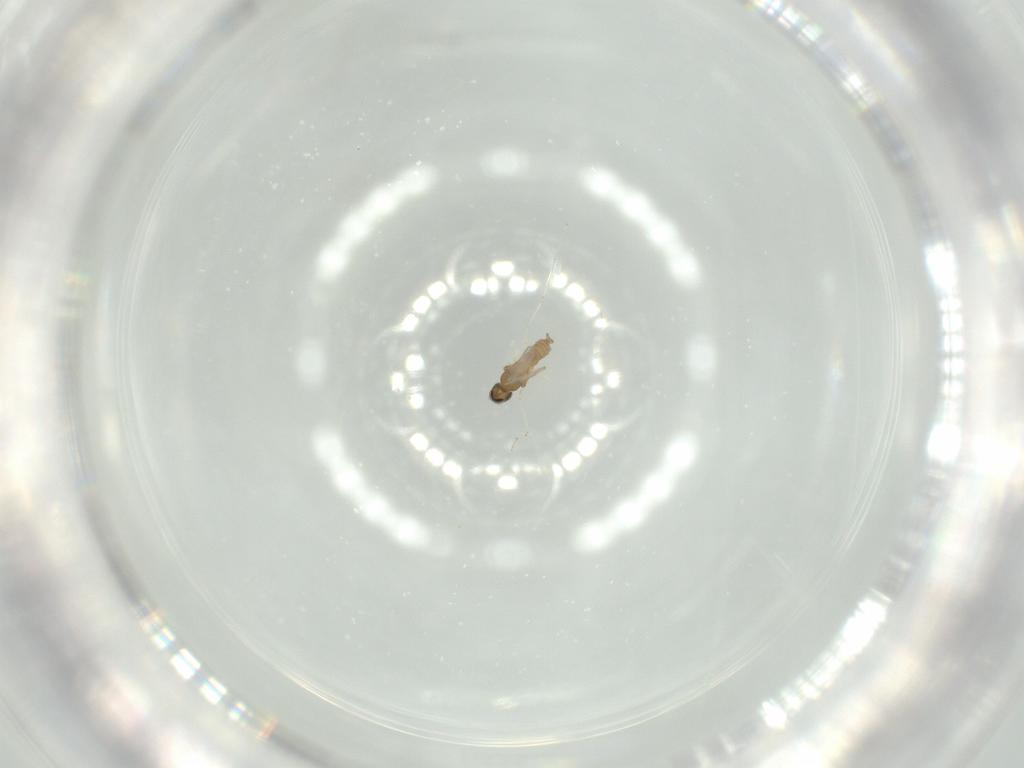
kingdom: Animalia
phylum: Arthropoda
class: Insecta
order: Diptera
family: Cecidomyiidae
